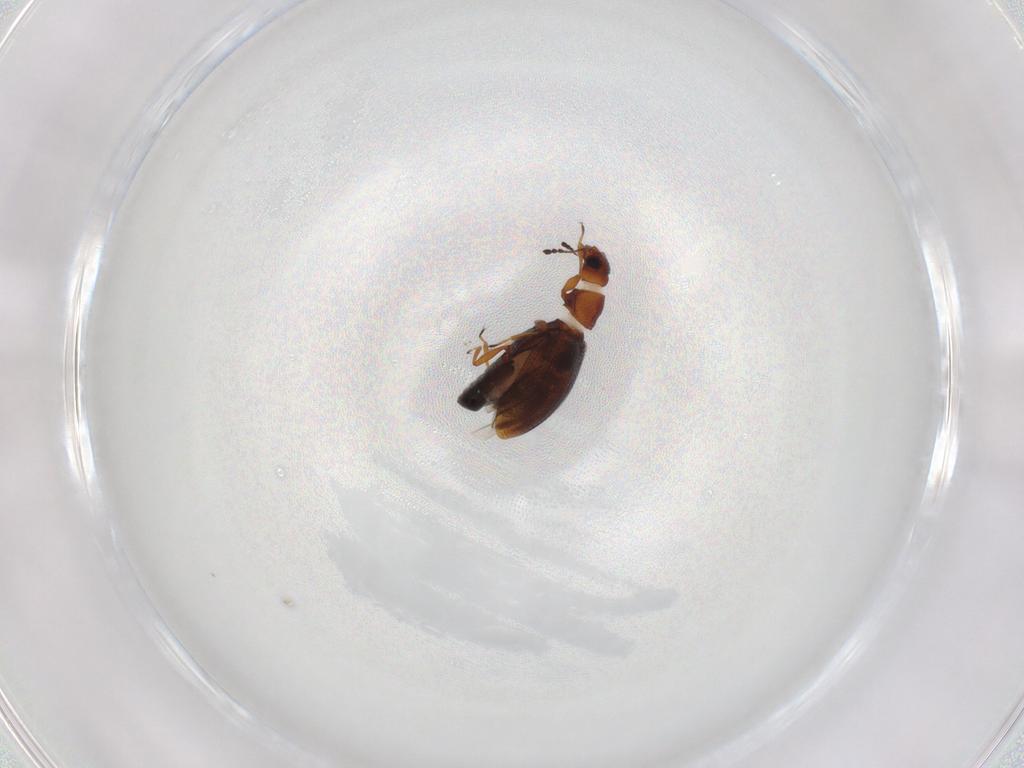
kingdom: Animalia
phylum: Arthropoda
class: Insecta
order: Coleoptera
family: Latridiidae
